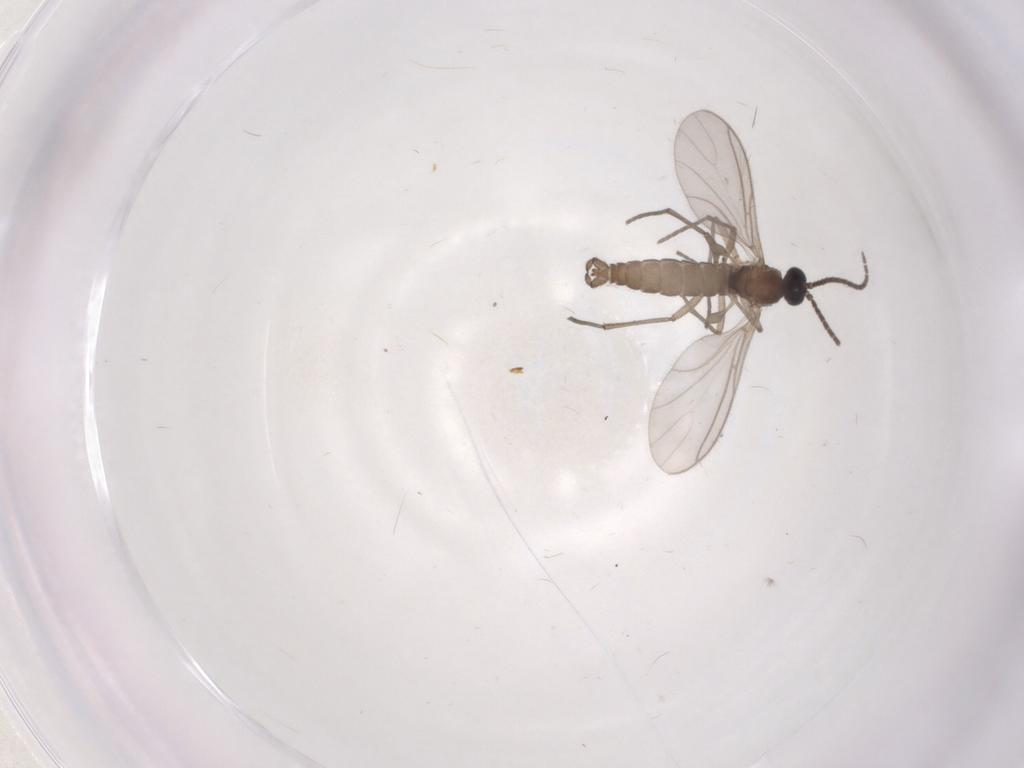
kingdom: Animalia
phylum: Arthropoda
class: Insecta
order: Diptera
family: Sciaridae
